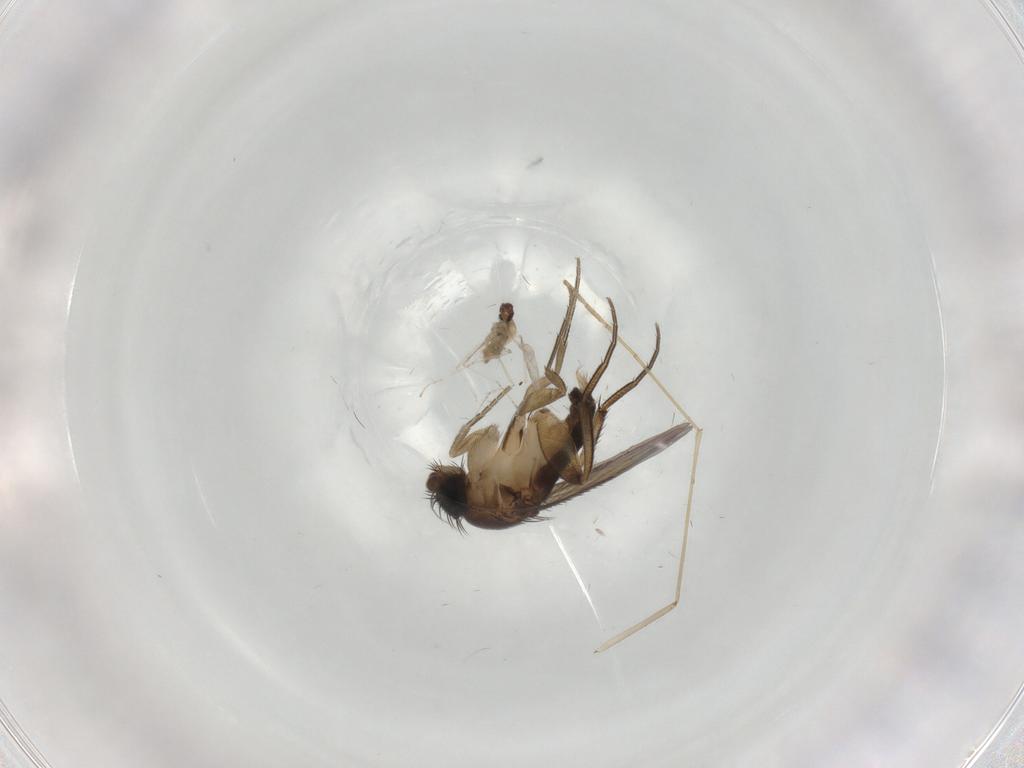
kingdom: Animalia
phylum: Arthropoda
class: Insecta
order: Diptera
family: Phoridae
